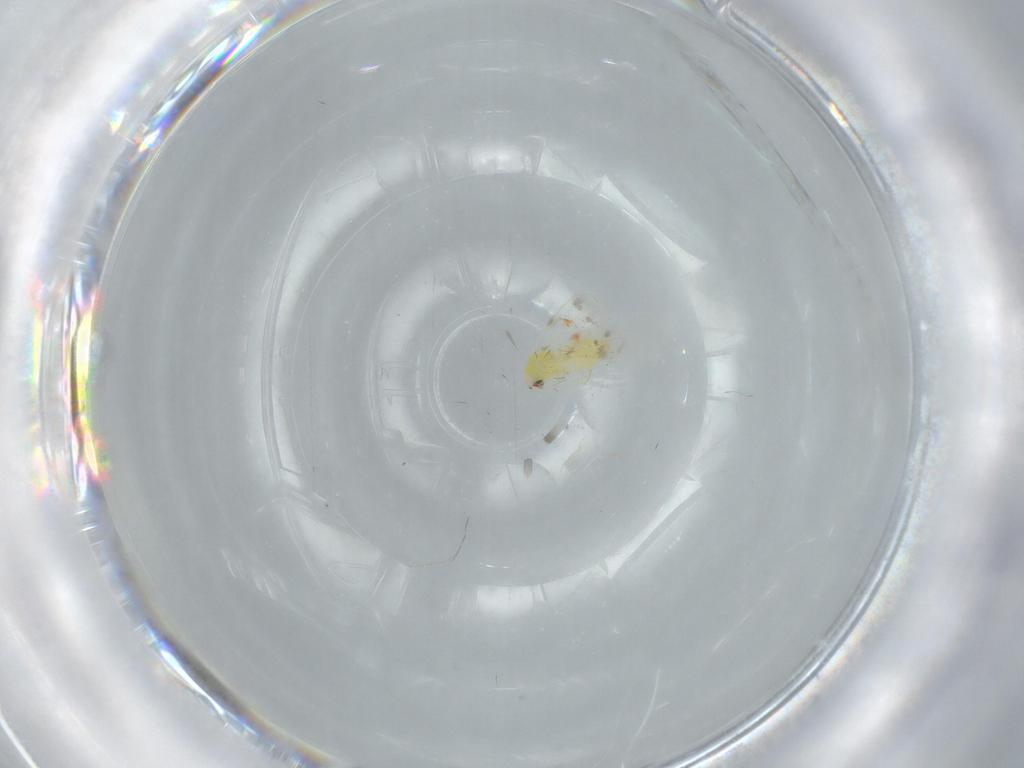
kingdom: Animalia
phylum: Arthropoda
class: Insecta
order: Hemiptera
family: Aleyrodidae
